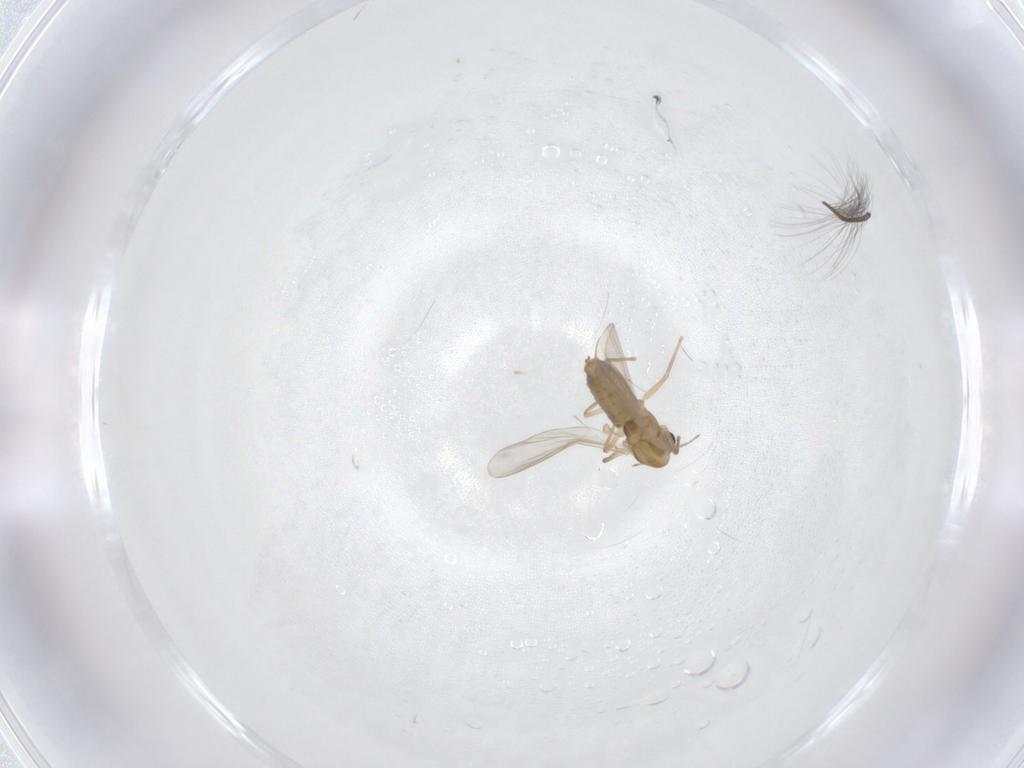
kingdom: Animalia
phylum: Arthropoda
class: Insecta
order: Diptera
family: Chironomidae
